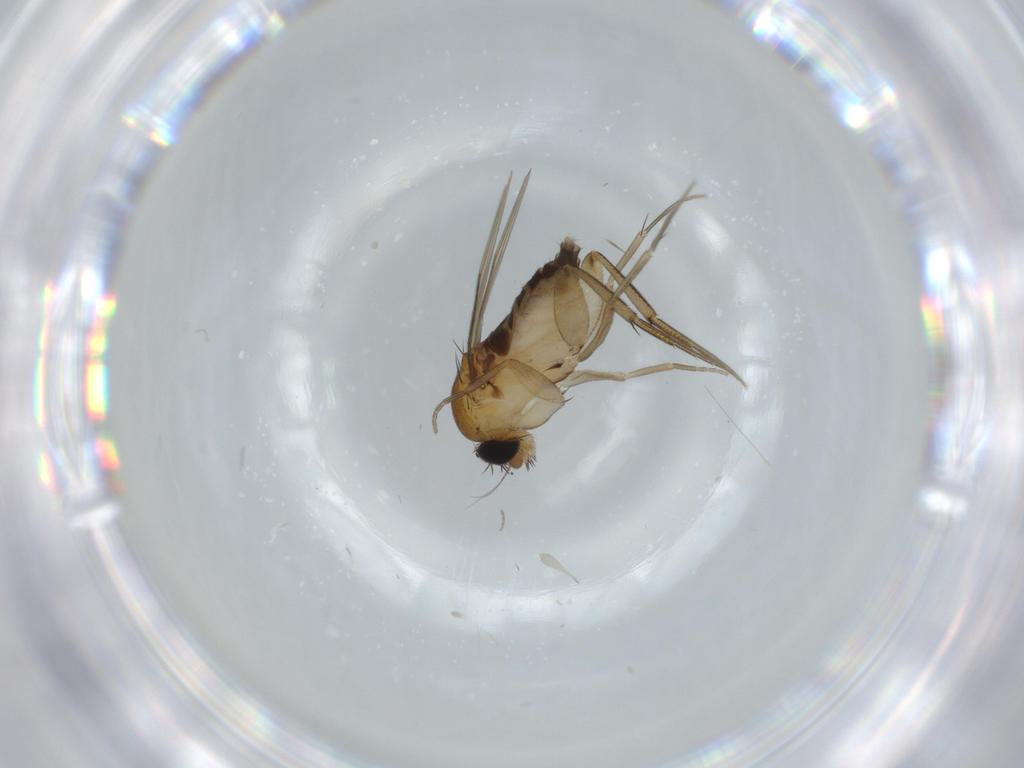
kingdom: Animalia
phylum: Arthropoda
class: Insecta
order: Diptera
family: Phoridae
